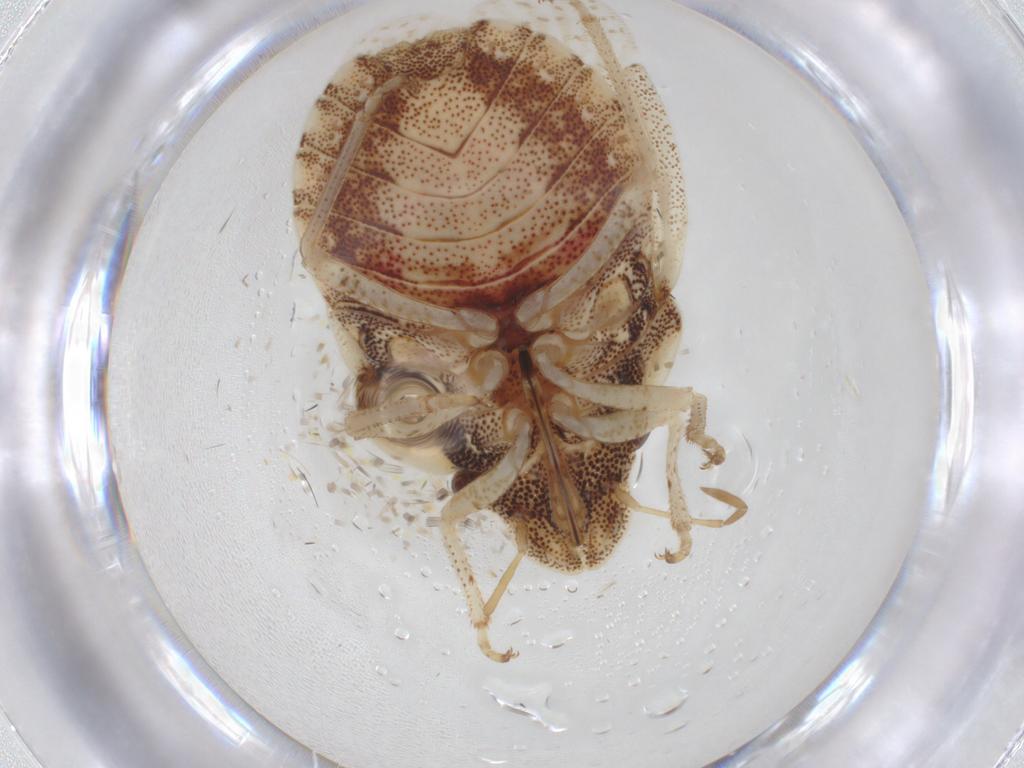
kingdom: Animalia
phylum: Arthropoda
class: Insecta
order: Hemiptera
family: Pentatomidae
